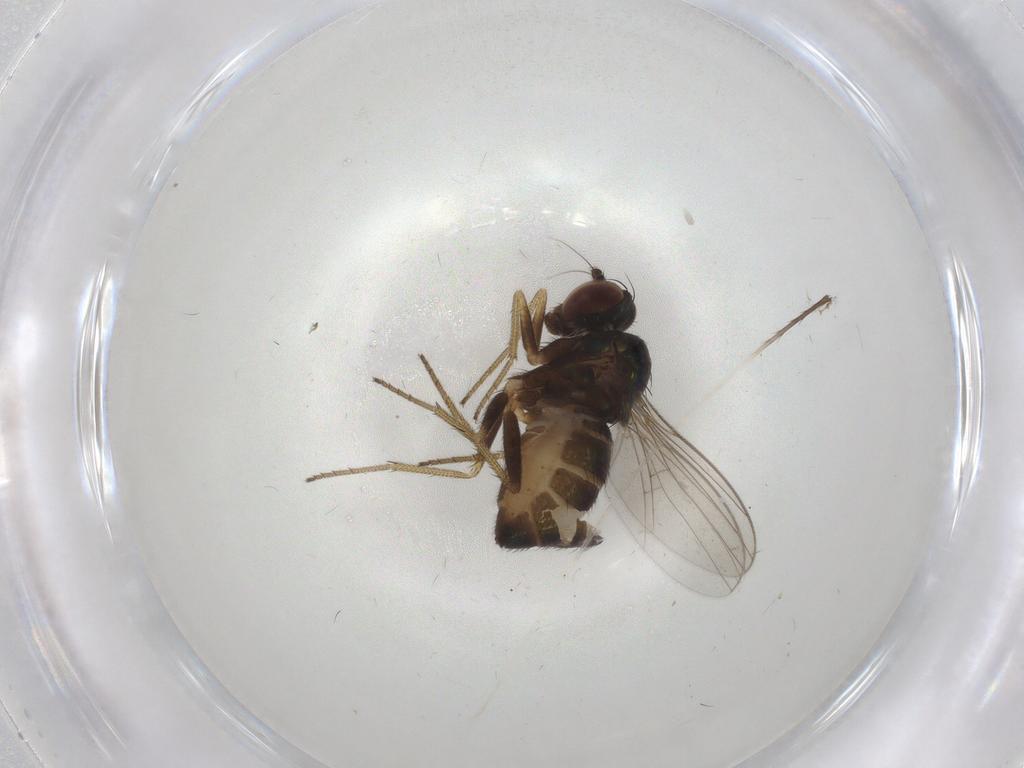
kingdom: Animalia
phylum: Arthropoda
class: Insecta
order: Diptera
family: Dolichopodidae
